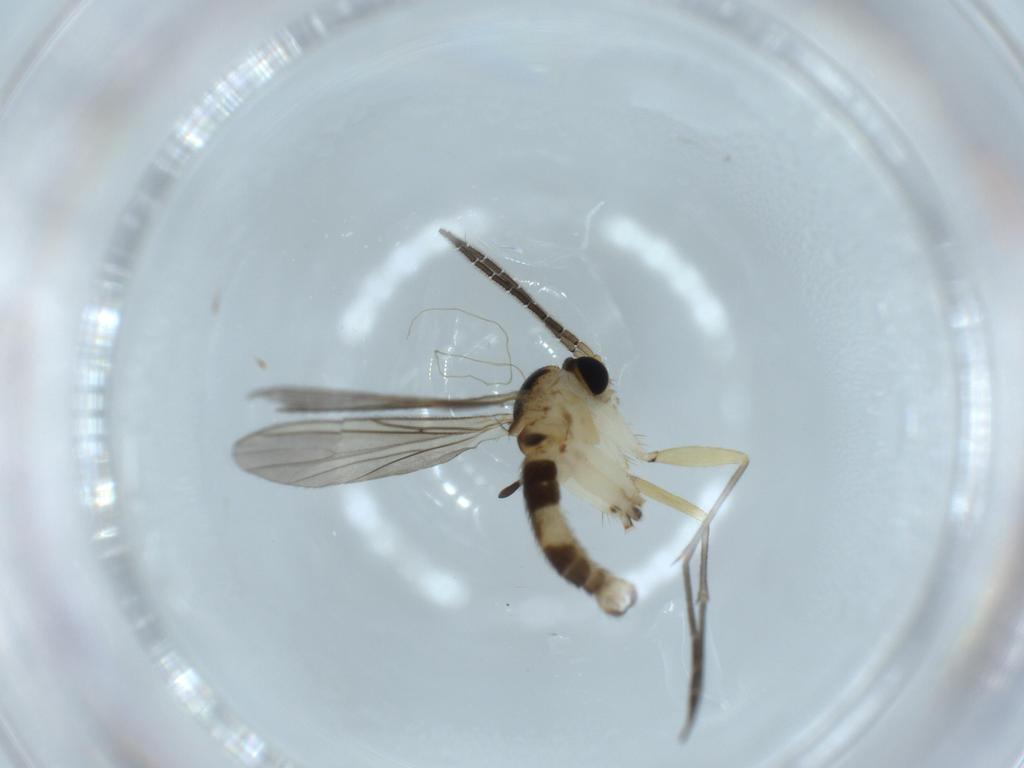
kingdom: Animalia
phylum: Arthropoda
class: Insecta
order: Diptera
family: Sciaridae
